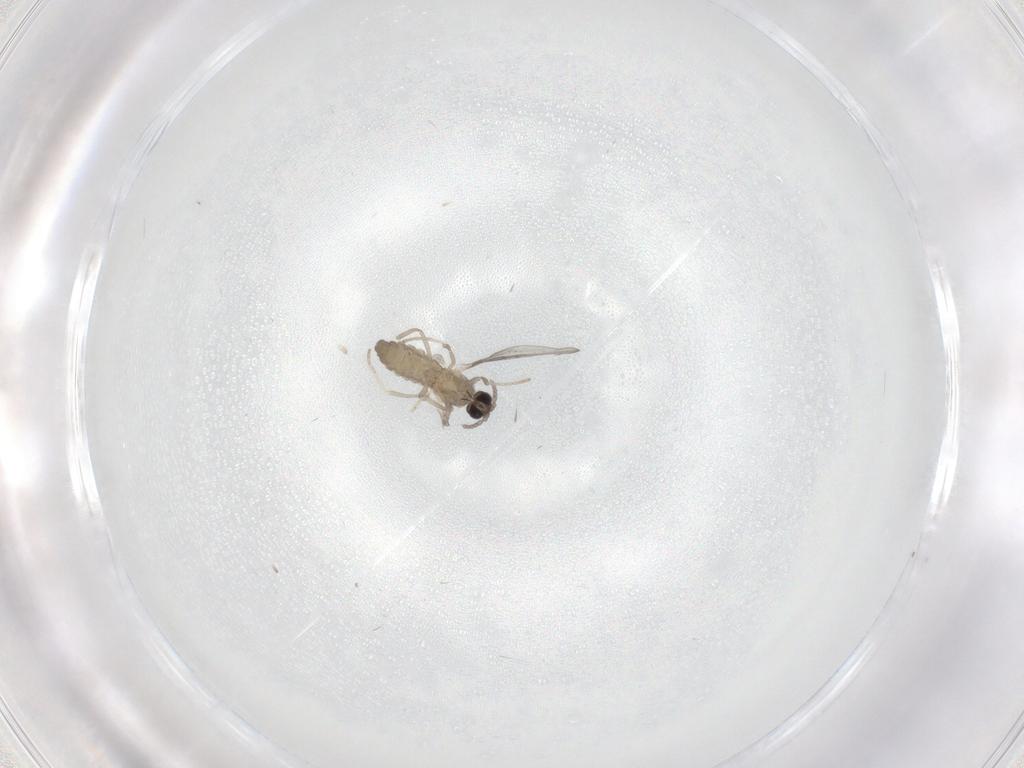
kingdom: Animalia
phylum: Arthropoda
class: Insecta
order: Diptera
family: Cecidomyiidae
